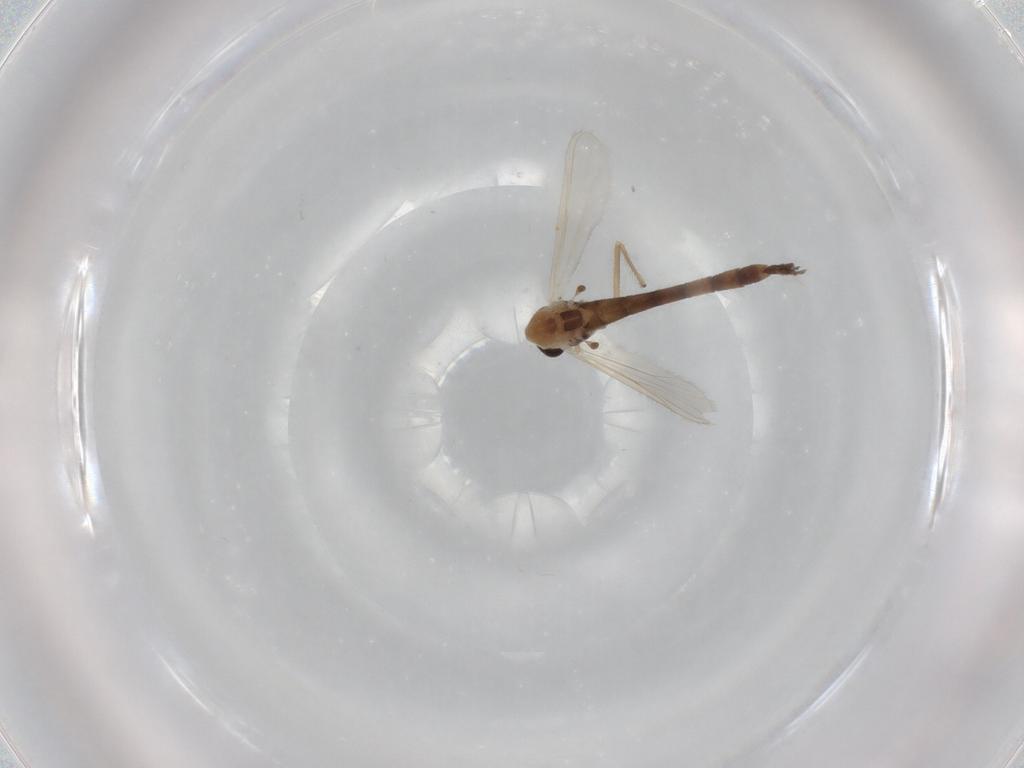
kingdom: Animalia
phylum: Arthropoda
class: Insecta
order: Diptera
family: Chironomidae
